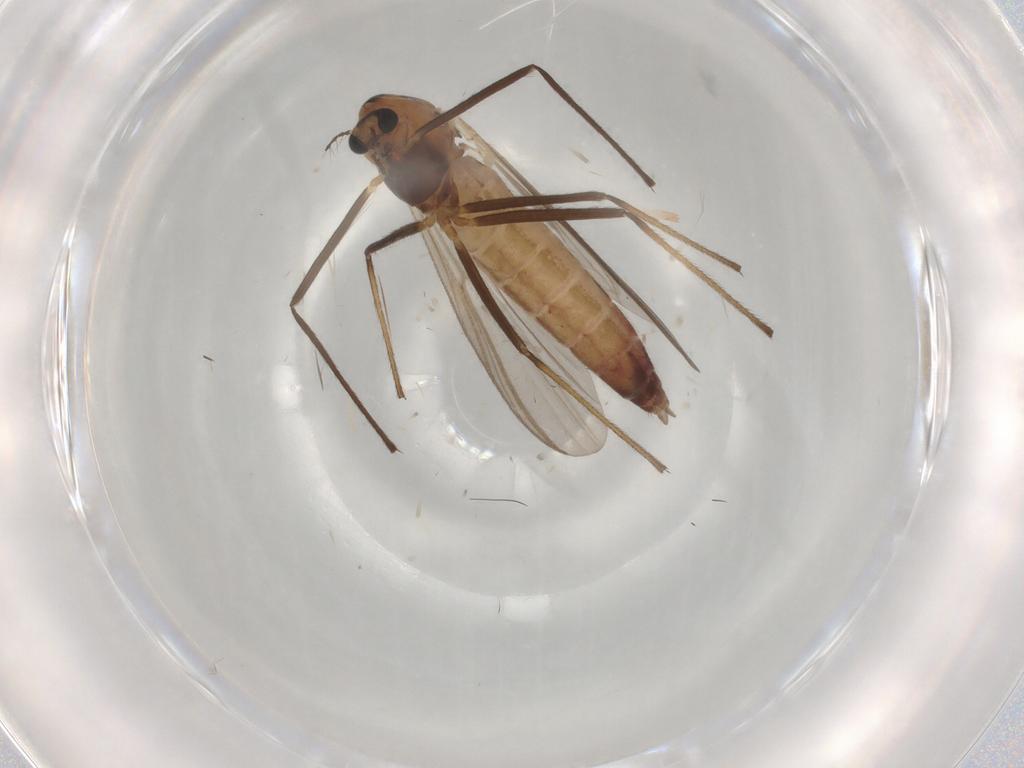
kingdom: Animalia
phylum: Arthropoda
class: Insecta
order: Diptera
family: Chironomidae
